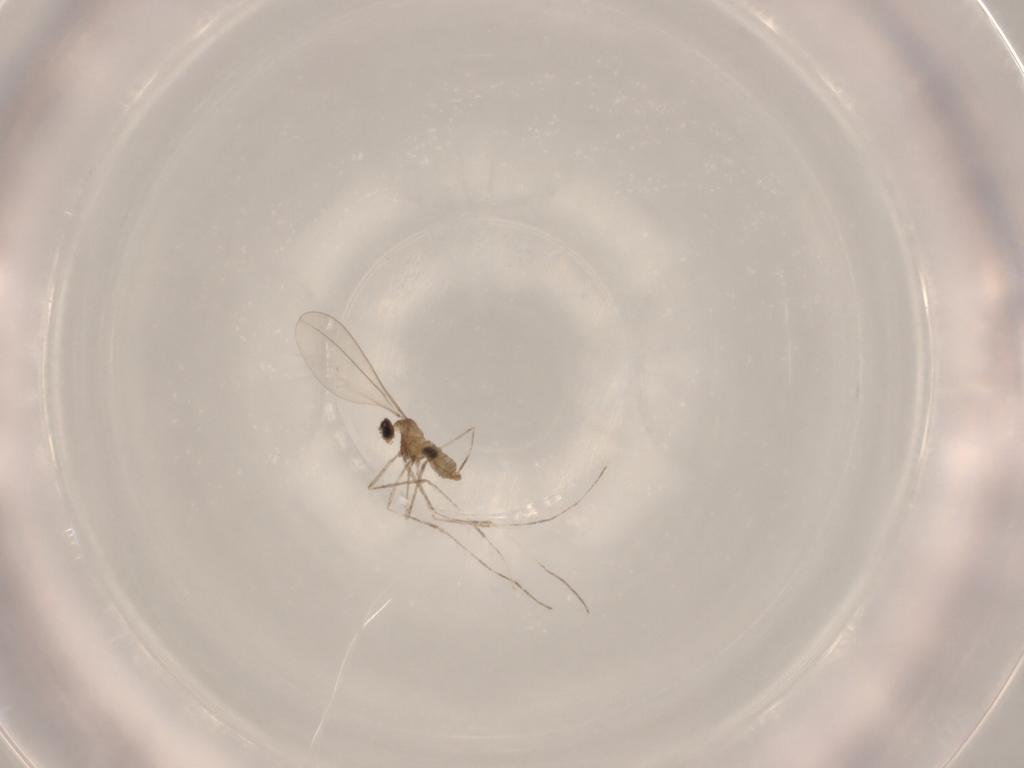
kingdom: Animalia
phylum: Arthropoda
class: Insecta
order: Diptera
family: Cecidomyiidae
